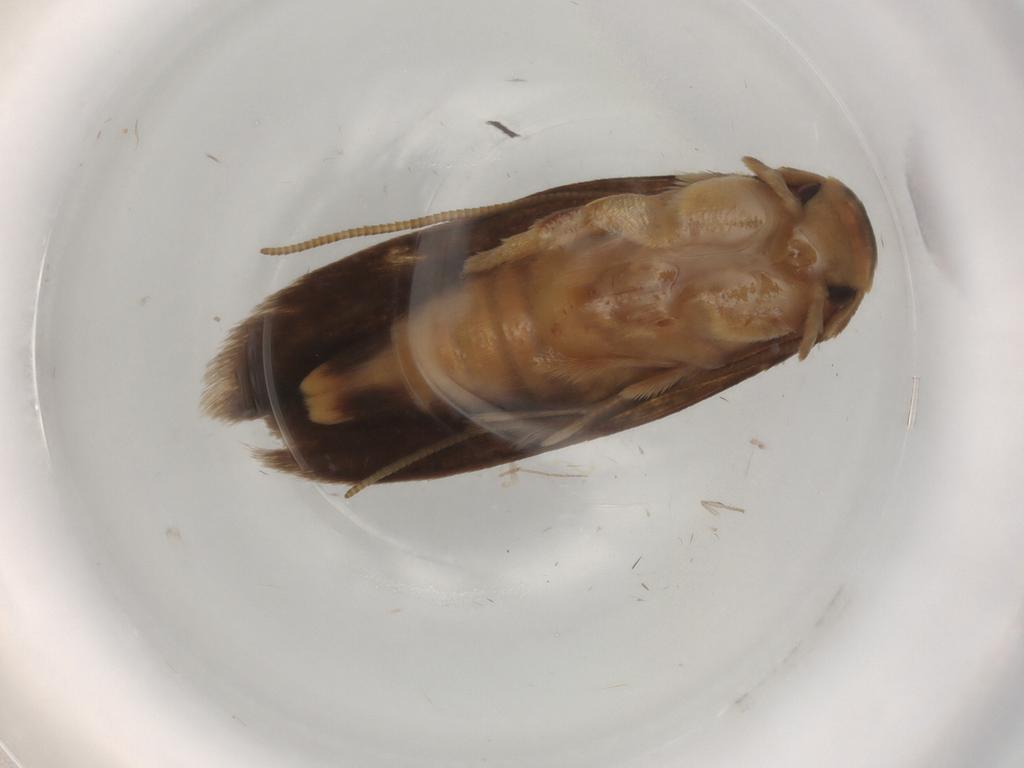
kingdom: Animalia
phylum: Arthropoda
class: Insecta
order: Lepidoptera
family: Tineidae
